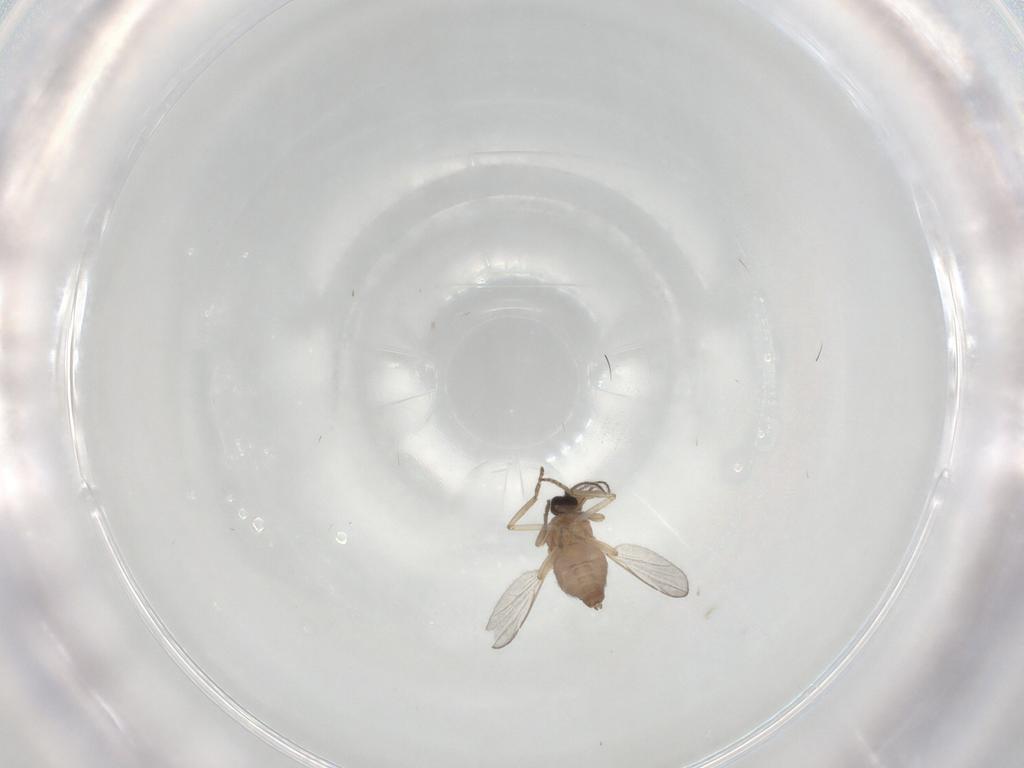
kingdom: Animalia
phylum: Arthropoda
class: Insecta
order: Diptera
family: Ceratopogonidae
